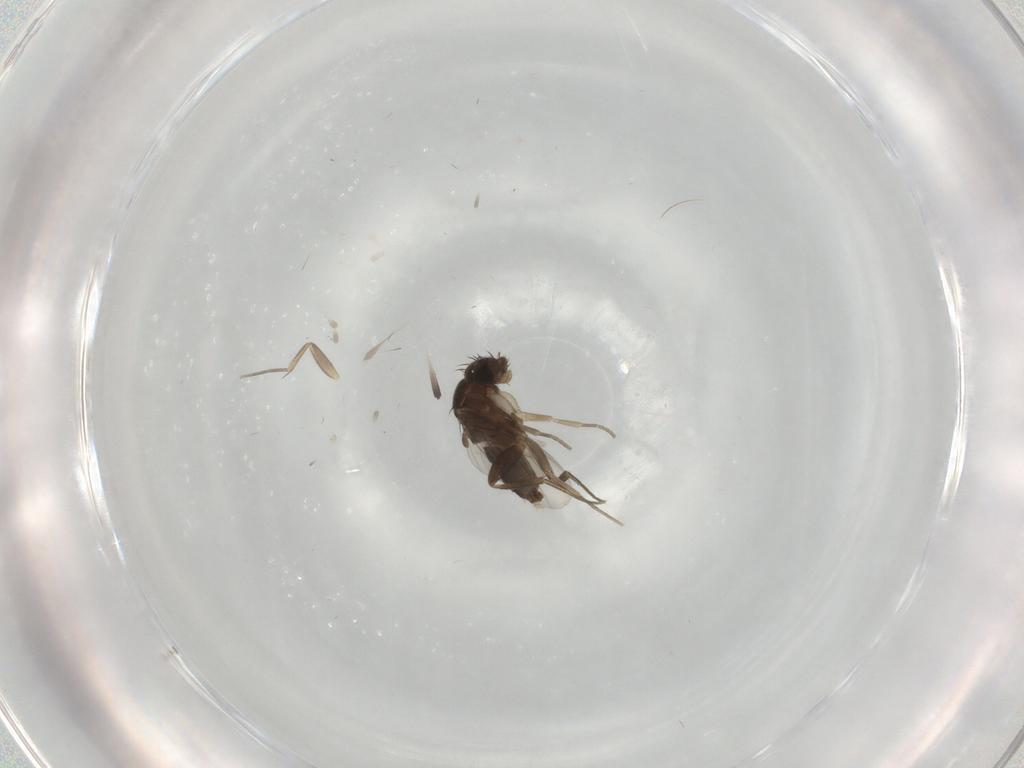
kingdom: Animalia
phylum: Arthropoda
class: Insecta
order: Diptera
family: Phoridae
